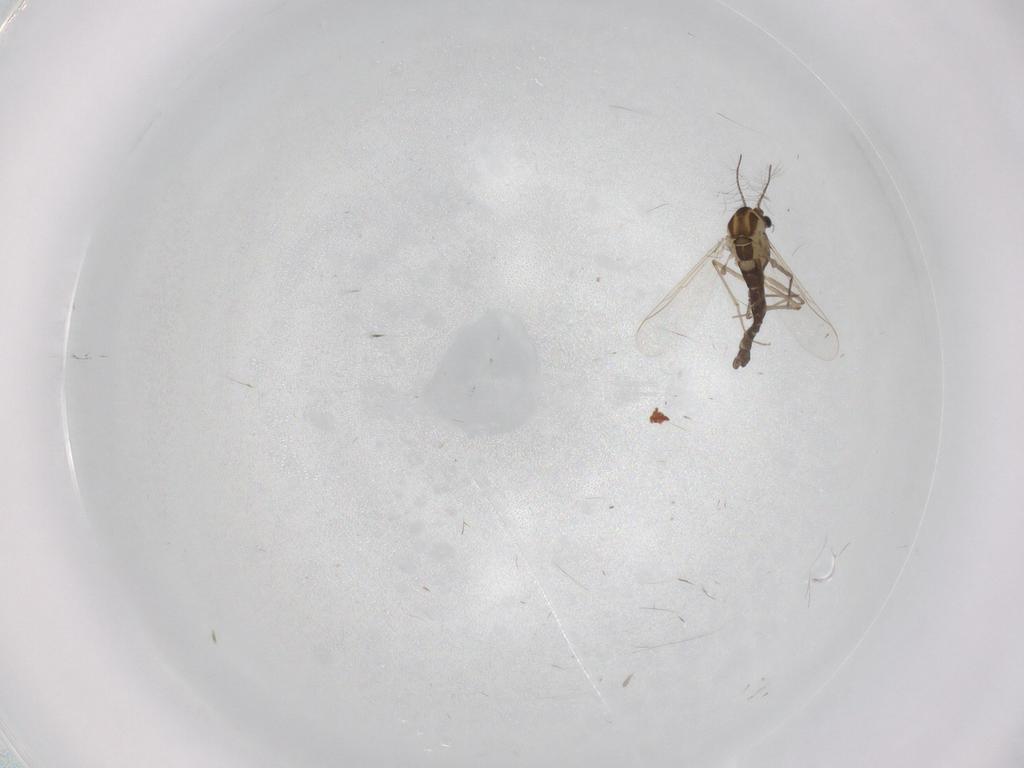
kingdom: Animalia
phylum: Arthropoda
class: Insecta
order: Diptera
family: Chironomidae
